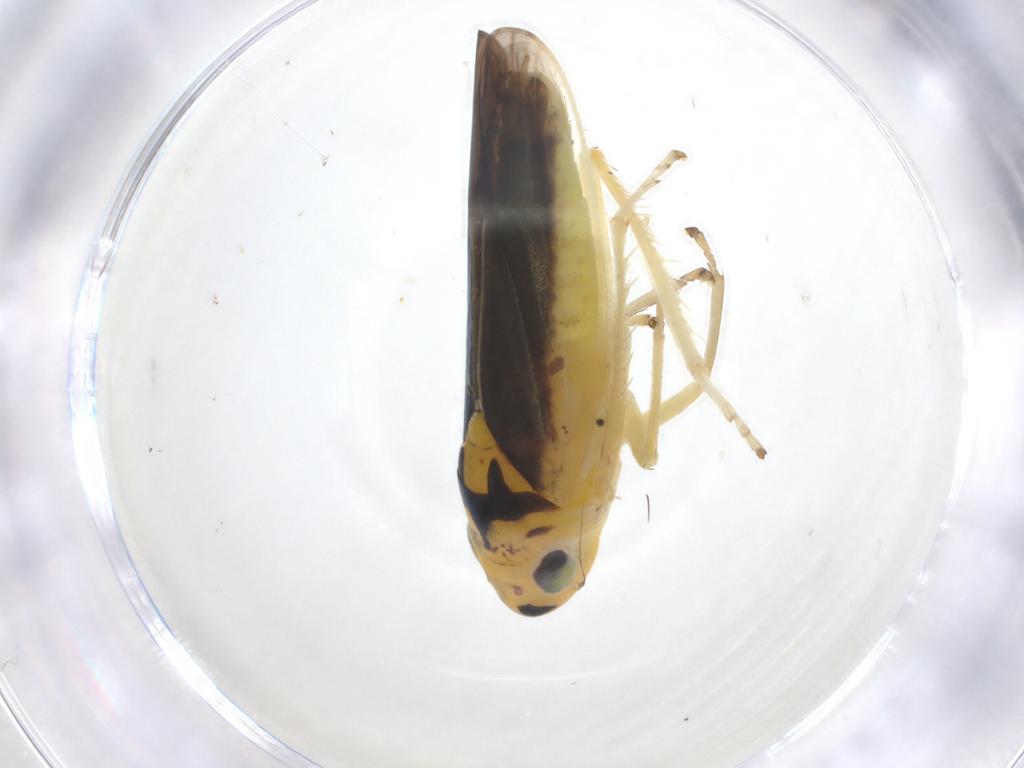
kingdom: Animalia
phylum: Arthropoda
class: Insecta
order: Hemiptera
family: Cicadellidae
